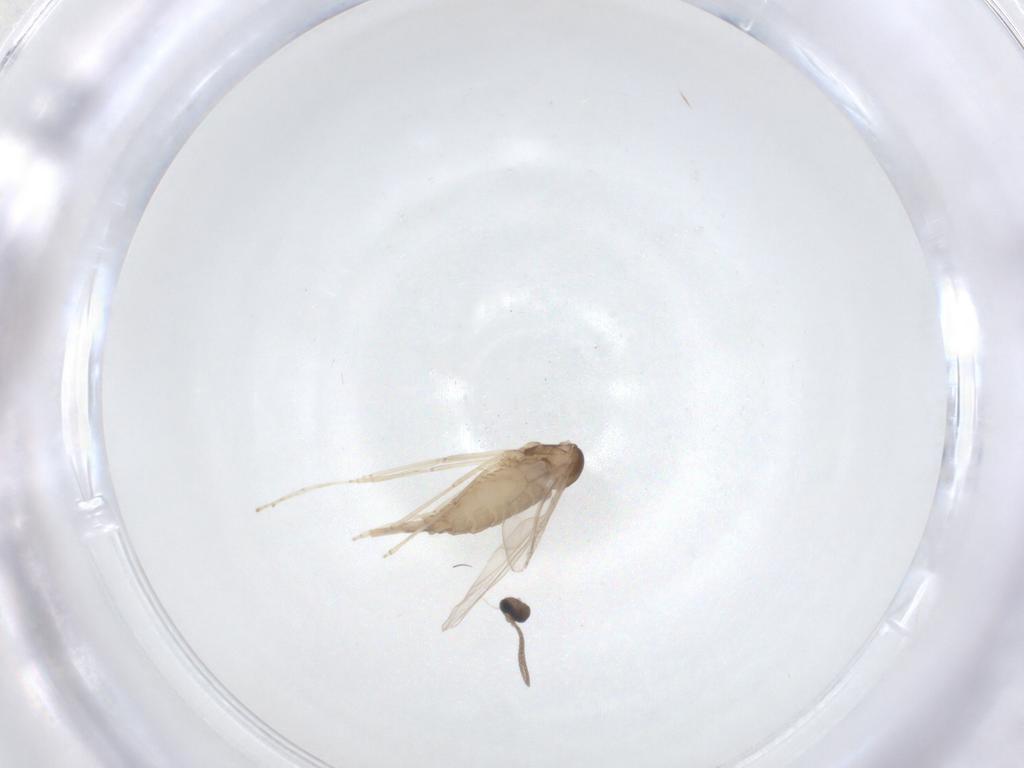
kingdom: Animalia
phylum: Arthropoda
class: Insecta
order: Diptera
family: Cecidomyiidae
